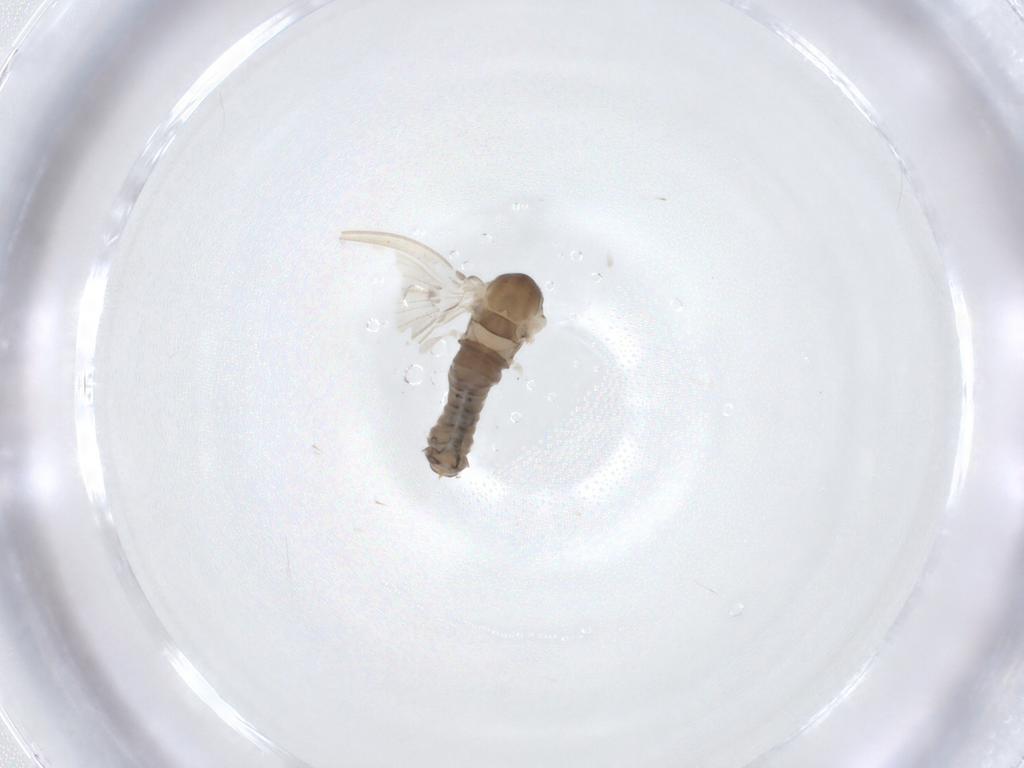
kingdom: Animalia
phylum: Arthropoda
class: Insecta
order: Diptera
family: Psychodidae
